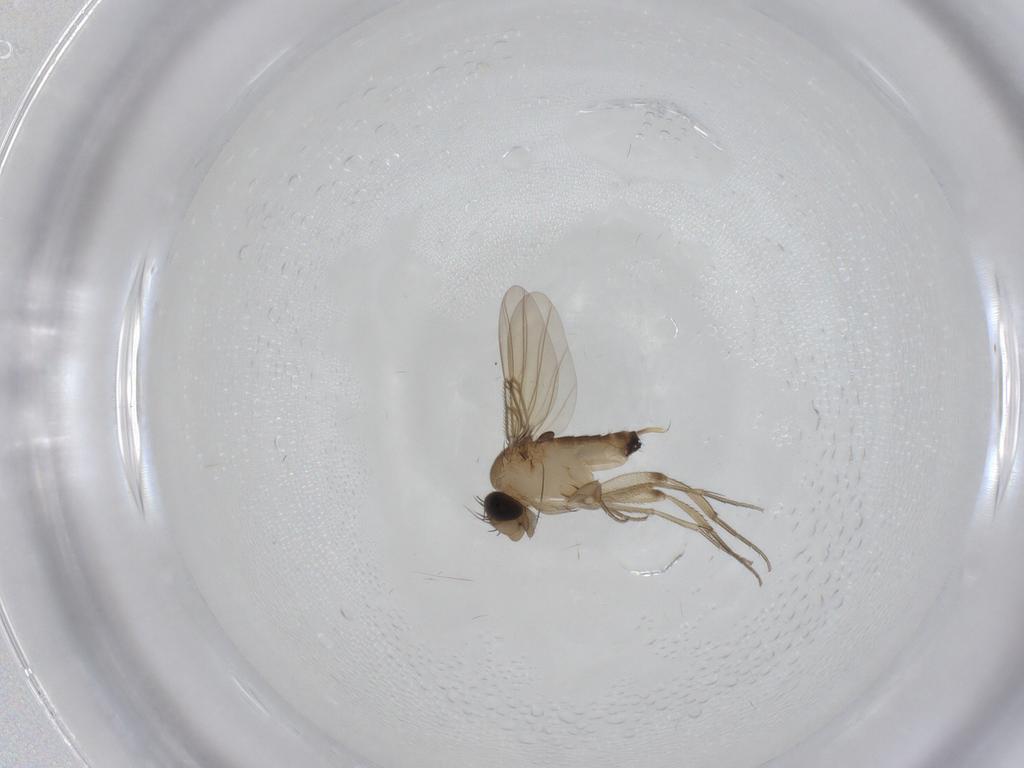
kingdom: Animalia
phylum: Arthropoda
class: Insecta
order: Diptera
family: Phoridae
